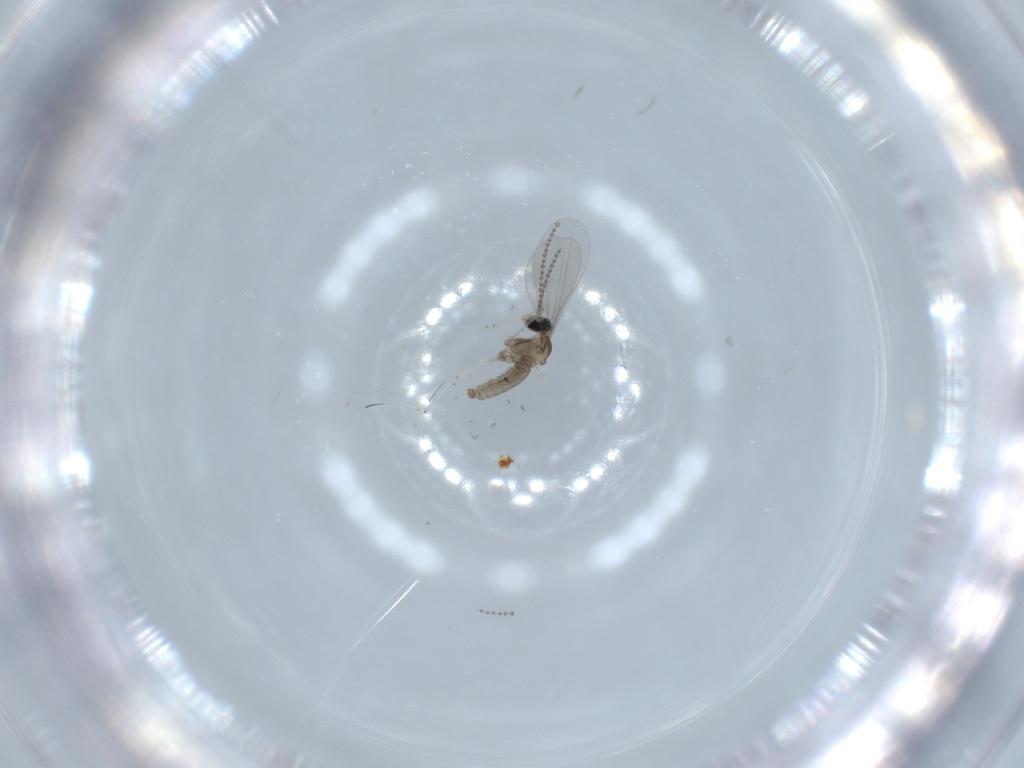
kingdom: Animalia
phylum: Arthropoda
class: Insecta
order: Diptera
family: Cecidomyiidae
